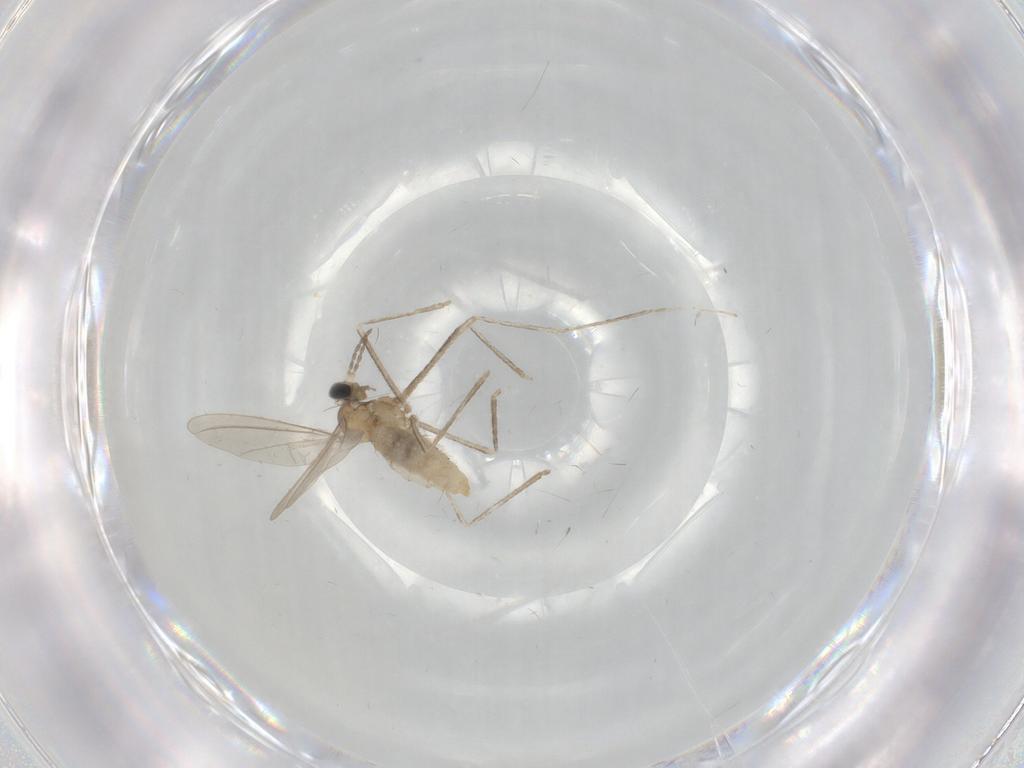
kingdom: Animalia
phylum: Arthropoda
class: Insecta
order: Diptera
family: Cecidomyiidae
